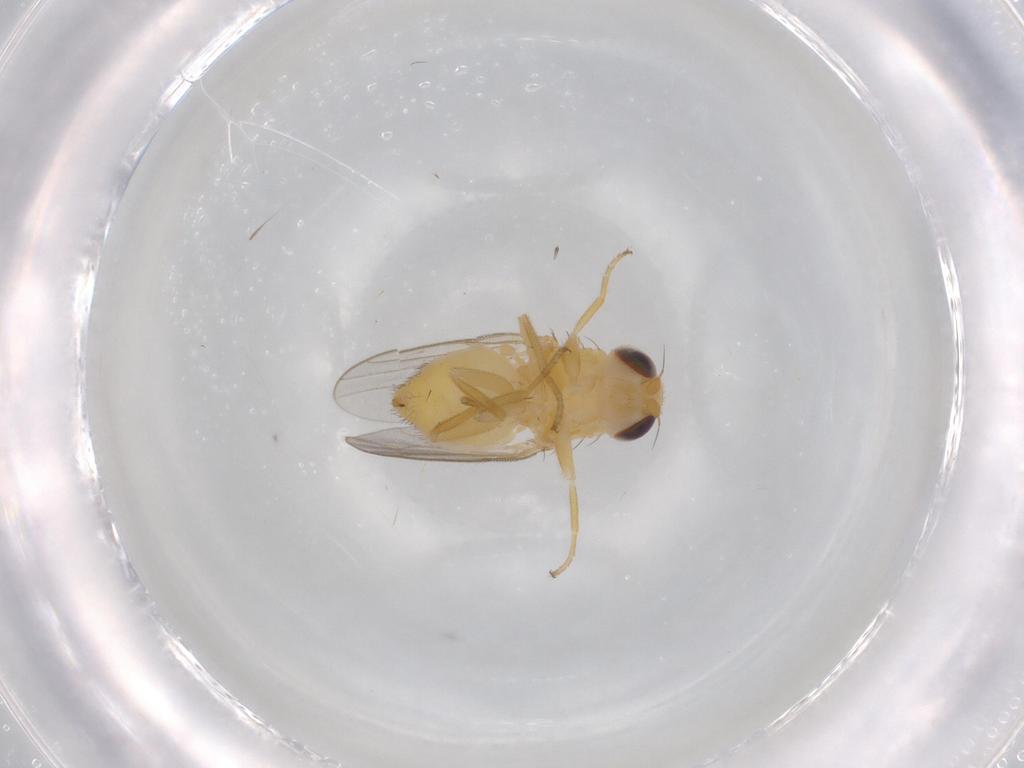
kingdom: Animalia
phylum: Arthropoda
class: Insecta
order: Diptera
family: Chloropidae
